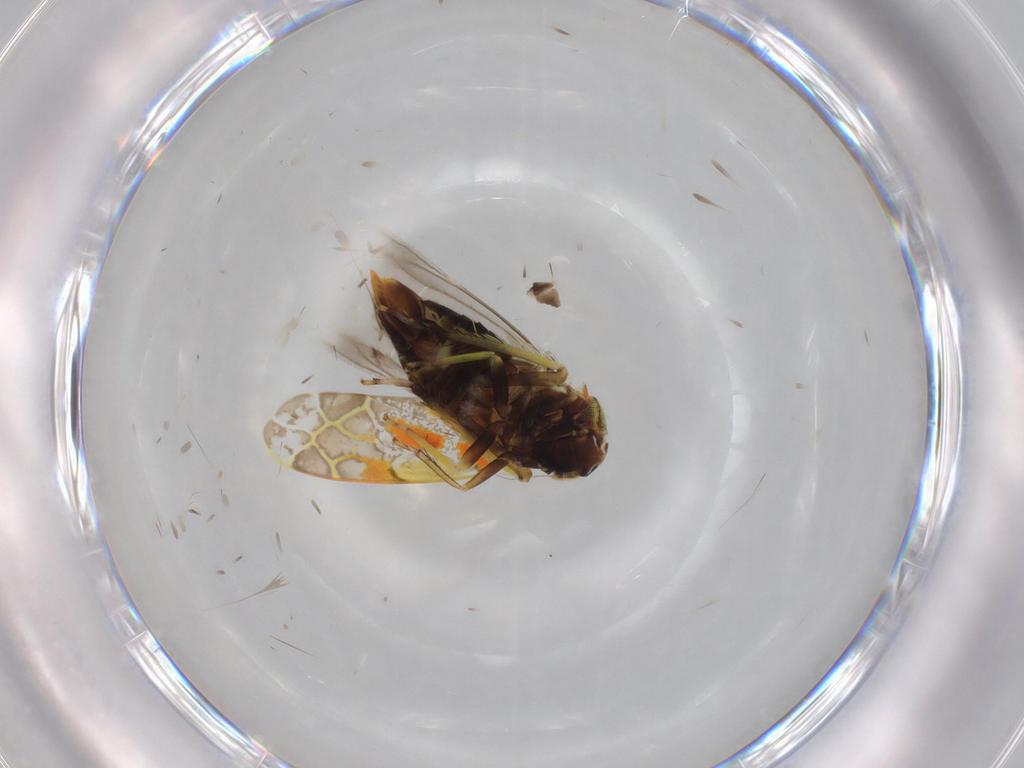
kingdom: Animalia
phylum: Arthropoda
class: Insecta
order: Hemiptera
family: Cicadellidae
